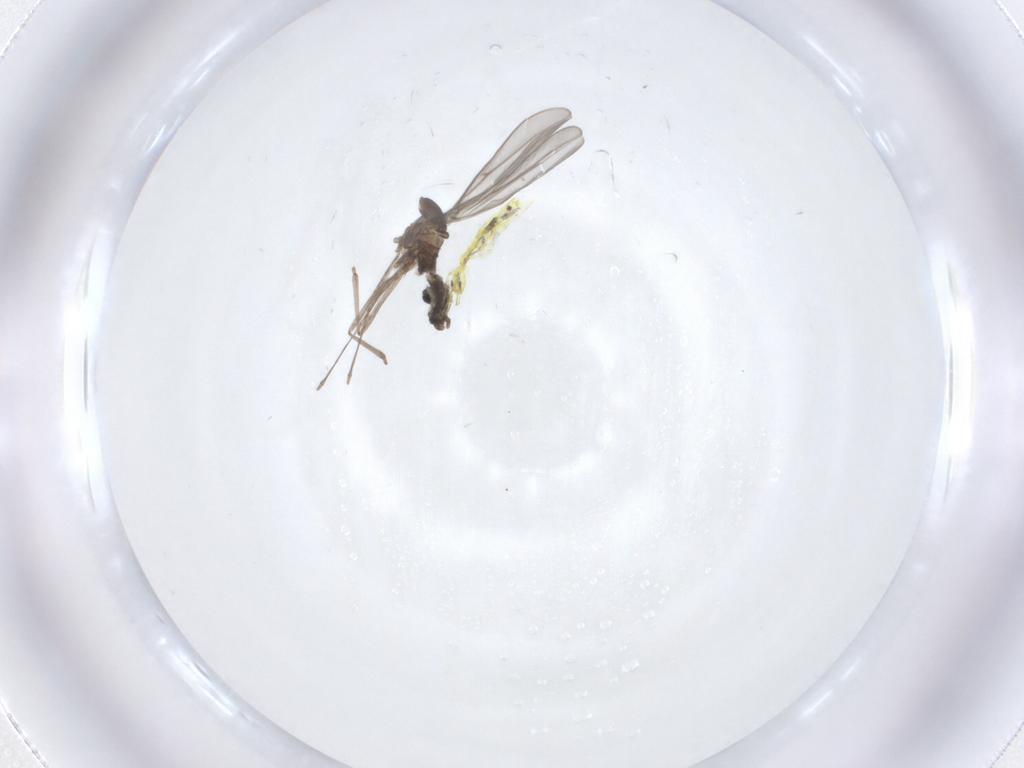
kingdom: Animalia
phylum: Arthropoda
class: Insecta
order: Diptera
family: Cecidomyiidae
